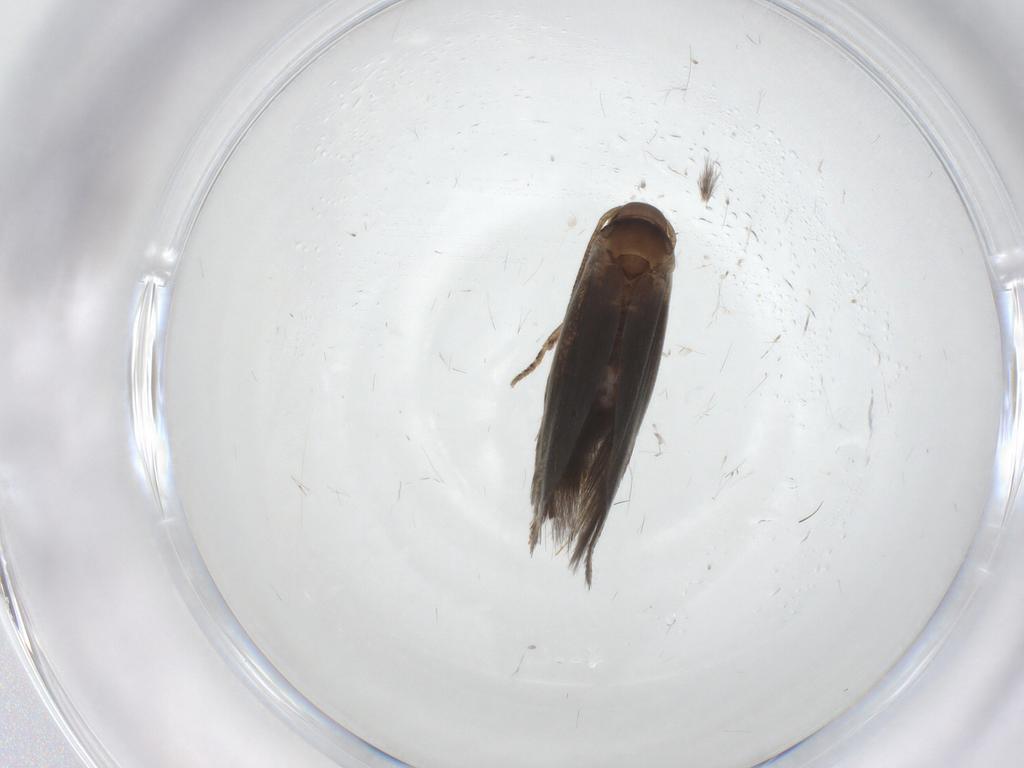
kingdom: Animalia
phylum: Arthropoda
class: Insecta
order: Lepidoptera
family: Elachistidae
